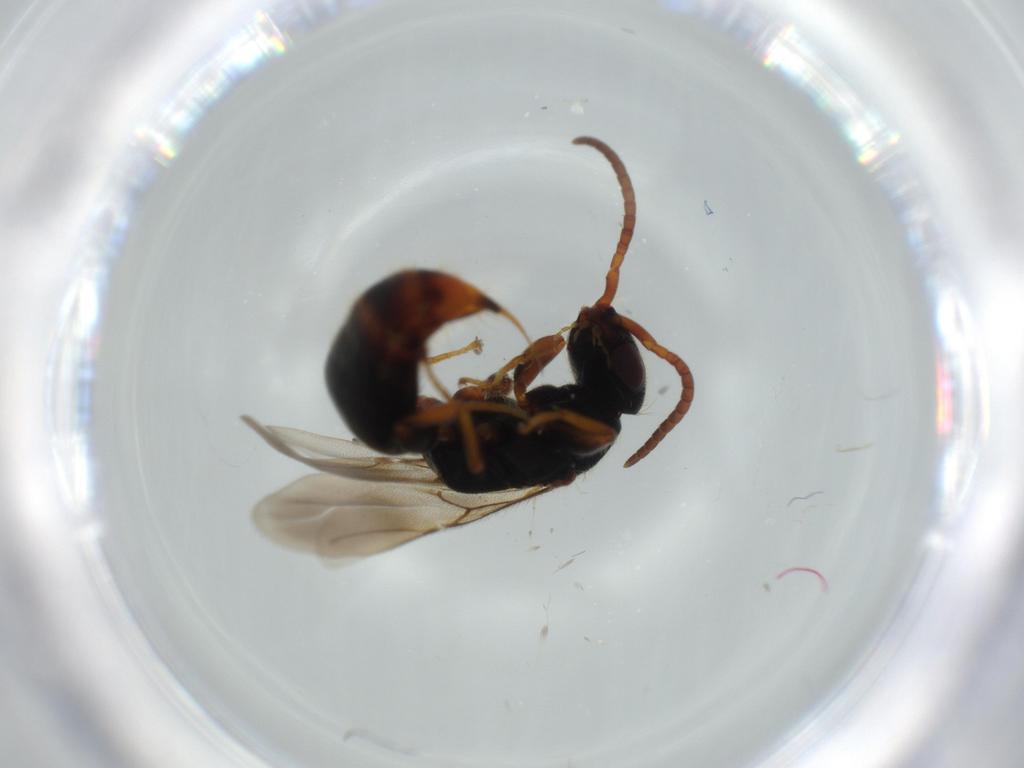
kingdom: Animalia
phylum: Arthropoda
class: Insecta
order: Hymenoptera
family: Bethylidae
